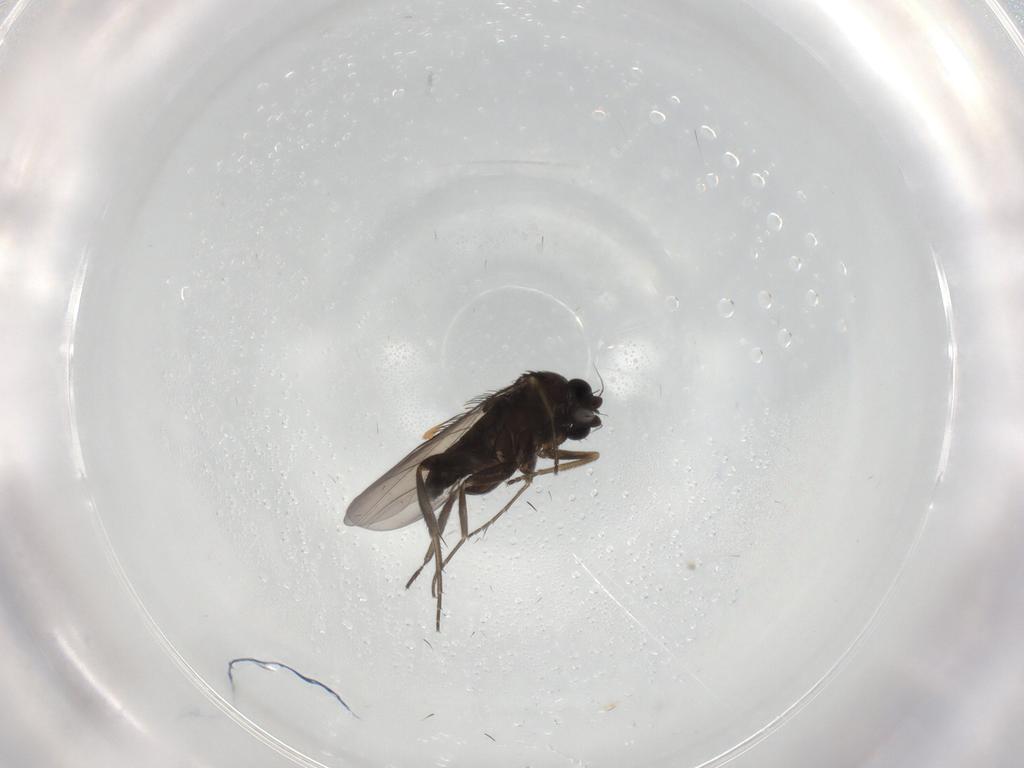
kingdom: Animalia
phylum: Arthropoda
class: Insecta
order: Diptera
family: Phoridae
